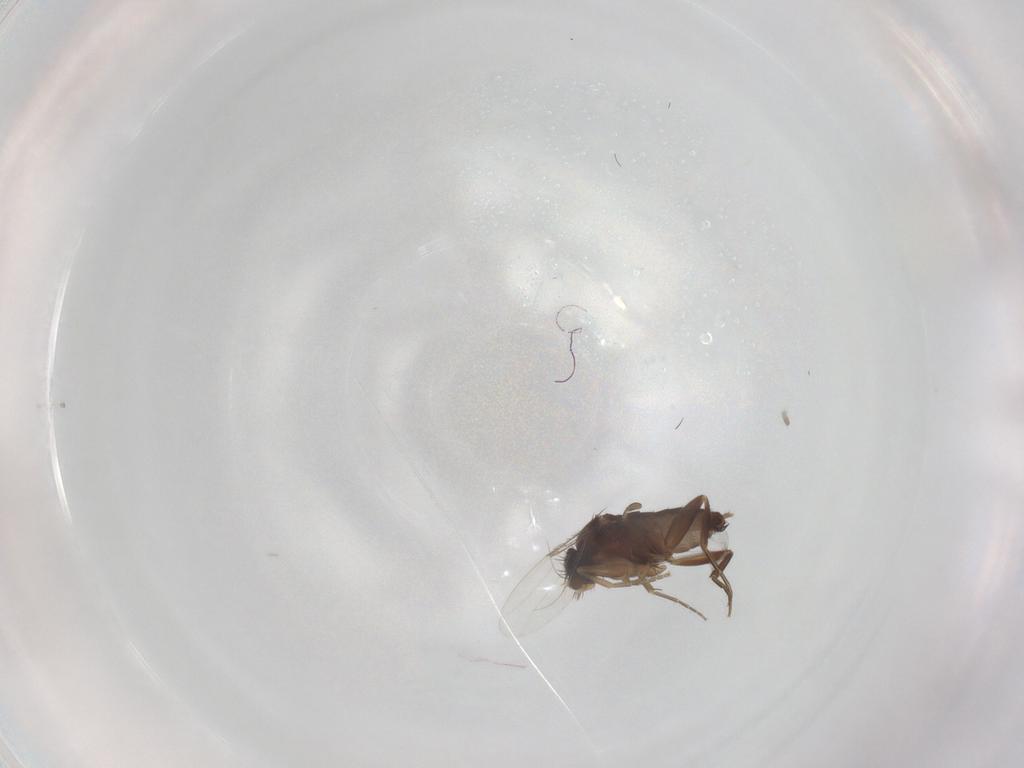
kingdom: Animalia
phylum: Arthropoda
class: Insecta
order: Diptera
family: Phoridae
